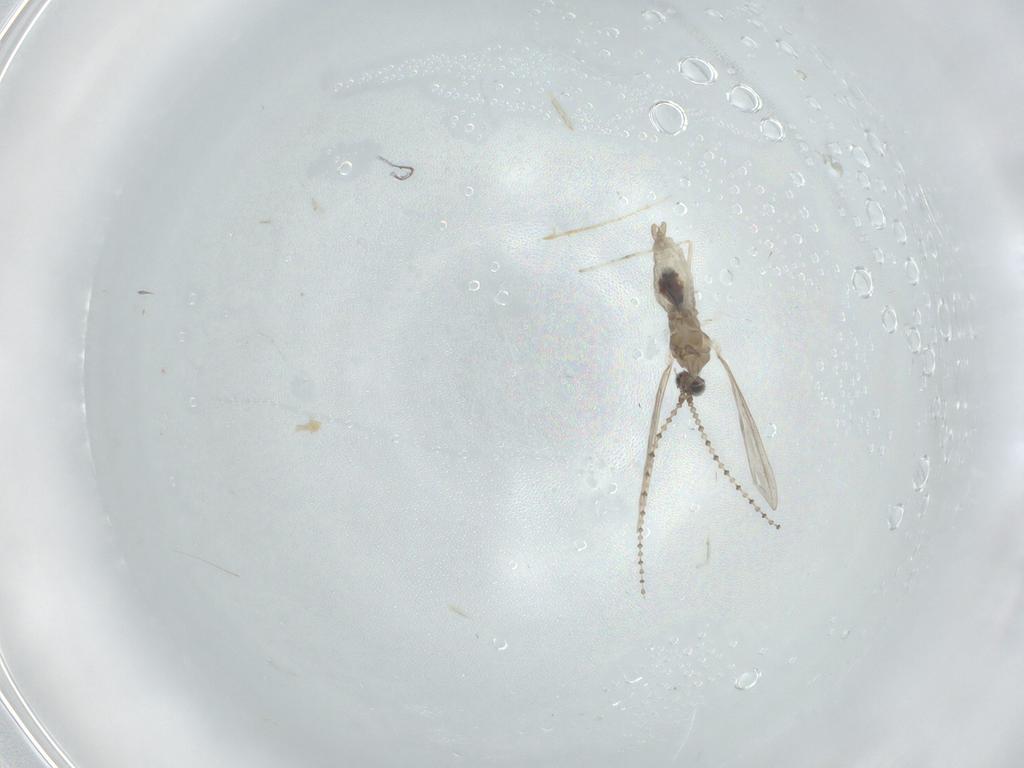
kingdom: Animalia
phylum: Arthropoda
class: Insecta
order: Diptera
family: Cecidomyiidae
